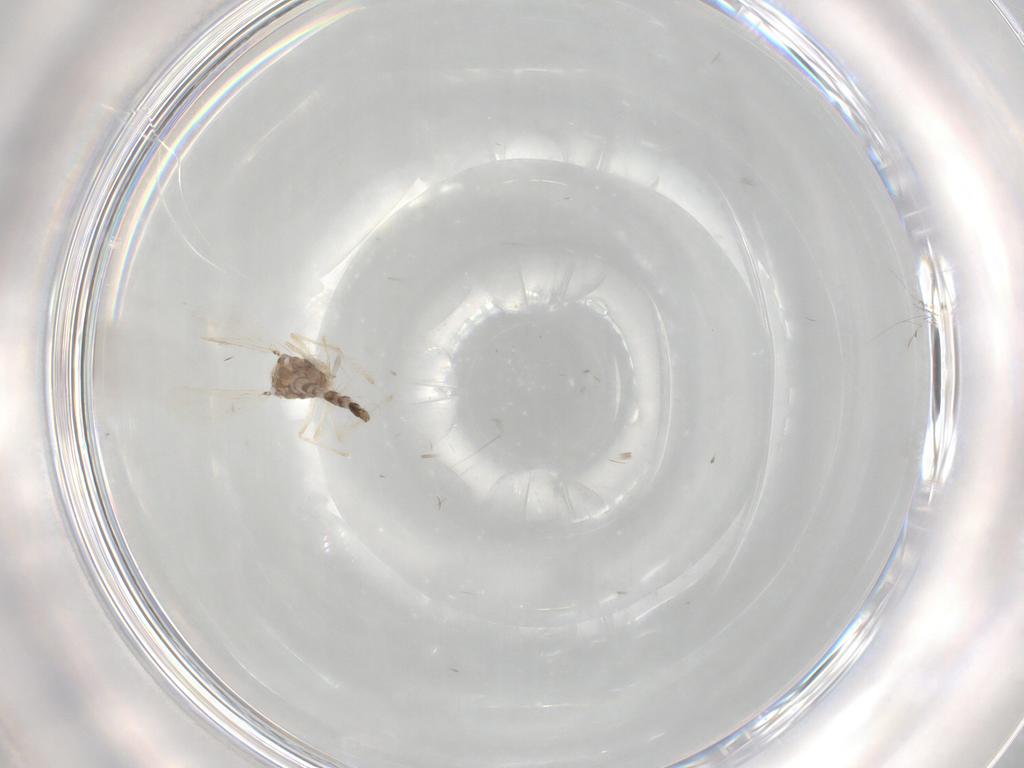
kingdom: Animalia
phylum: Arthropoda
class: Insecta
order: Diptera
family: Chironomidae
